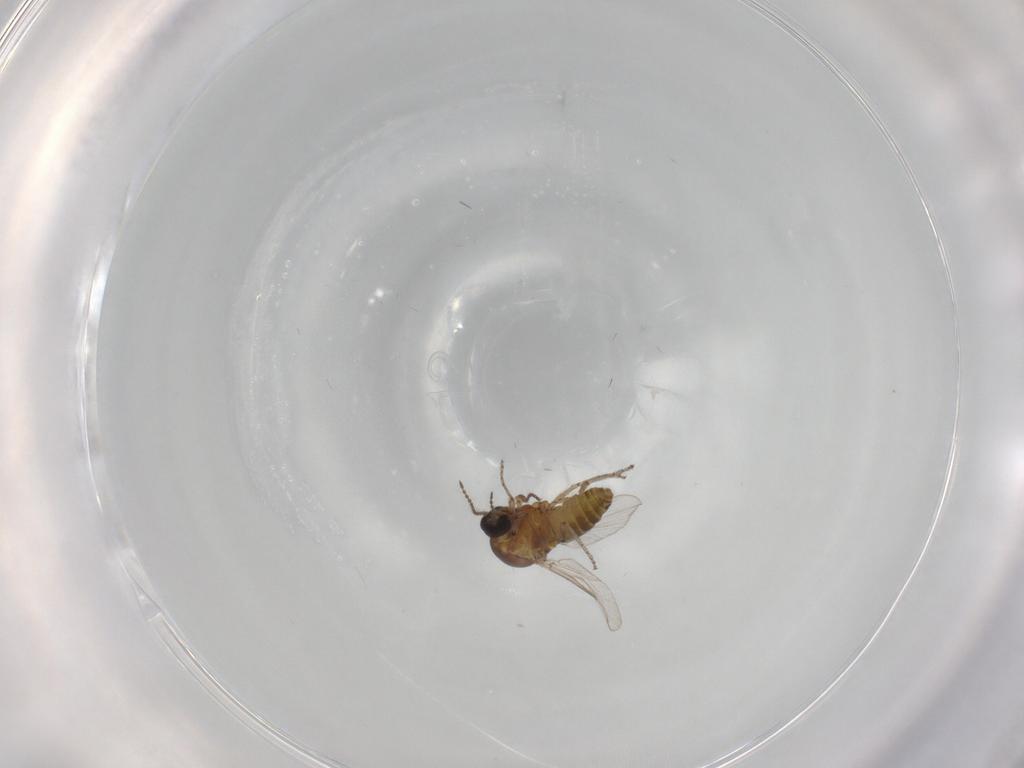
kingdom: Animalia
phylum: Arthropoda
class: Insecta
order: Diptera
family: Ceratopogonidae
